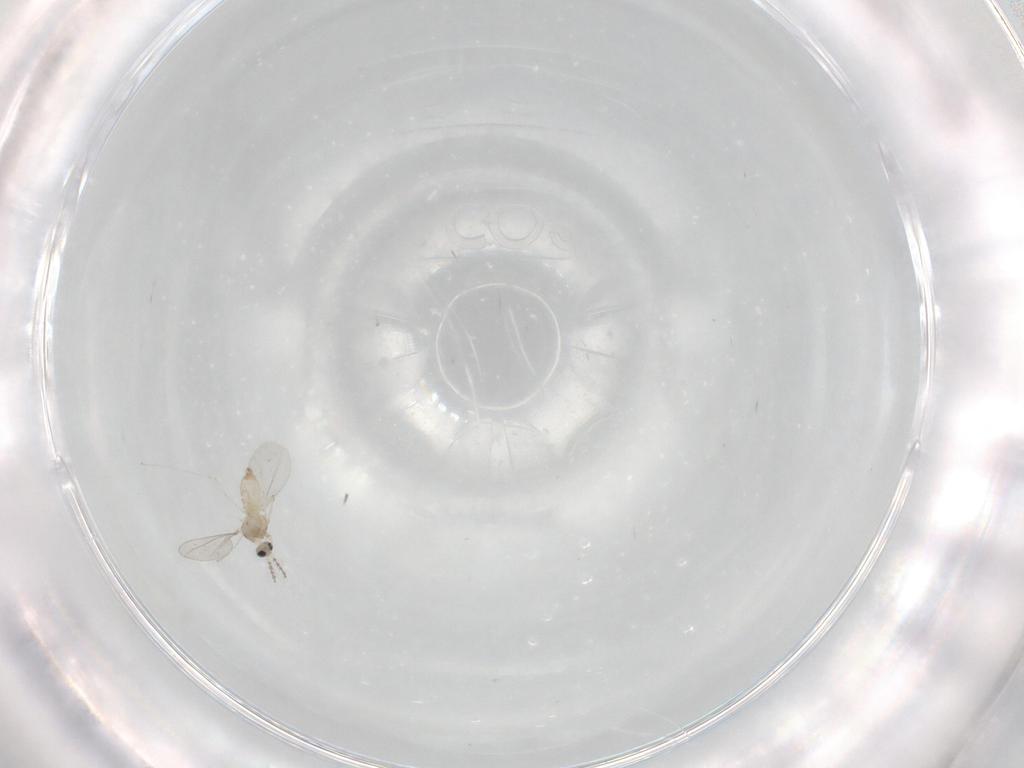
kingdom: Animalia
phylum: Arthropoda
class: Insecta
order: Diptera
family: Cecidomyiidae
